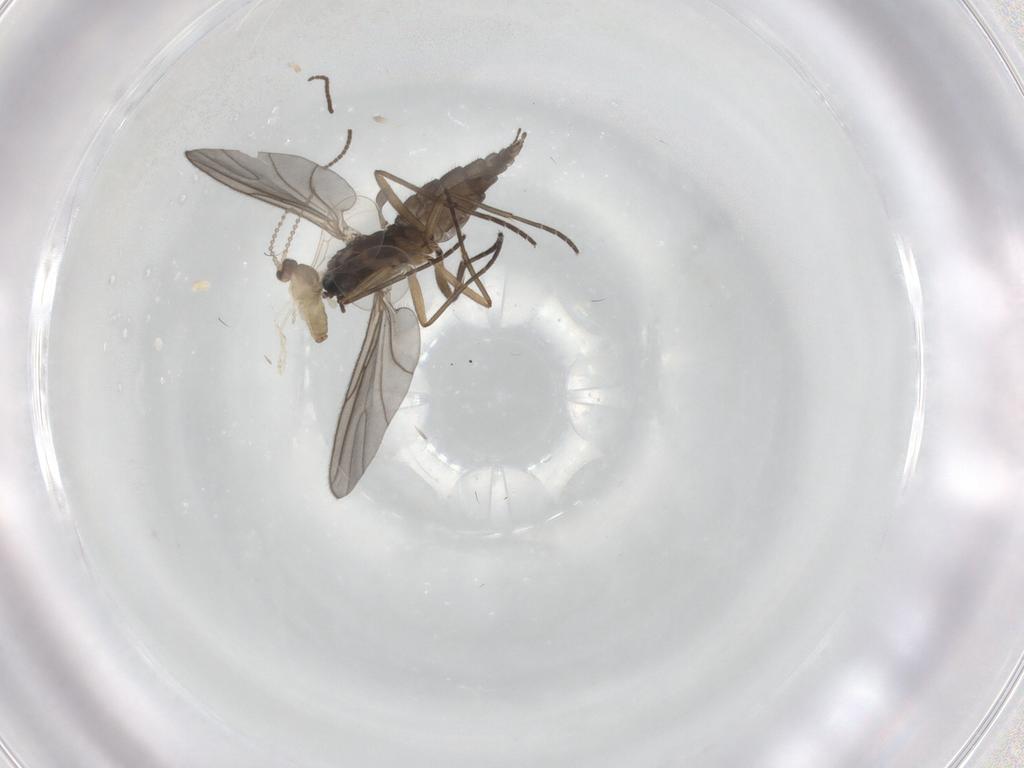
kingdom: Animalia
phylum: Arthropoda
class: Insecta
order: Diptera
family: Cecidomyiidae
